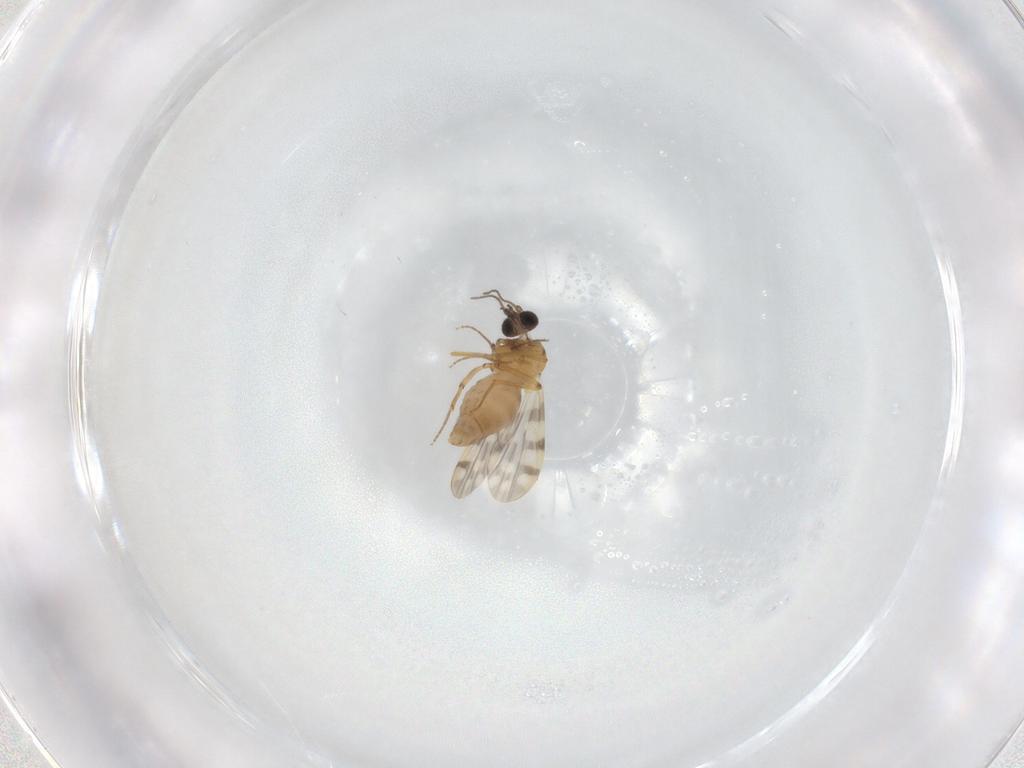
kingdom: Animalia
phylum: Arthropoda
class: Insecta
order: Diptera
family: Ceratopogonidae
